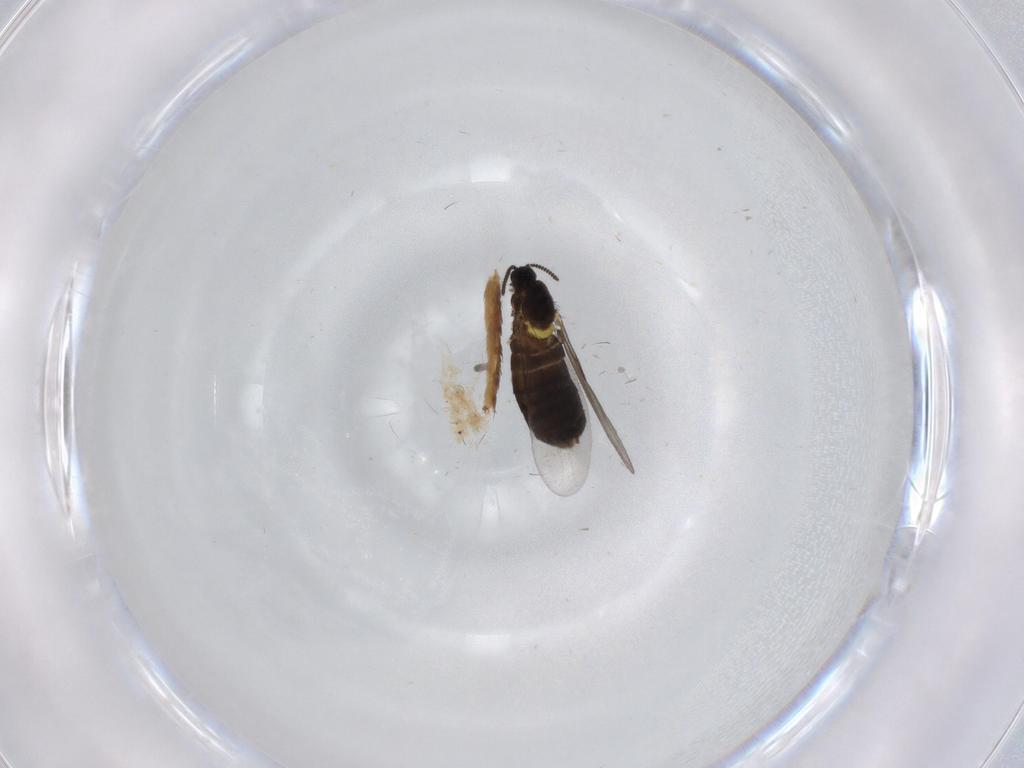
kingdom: Animalia
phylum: Arthropoda
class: Insecta
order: Diptera
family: Scatopsidae
